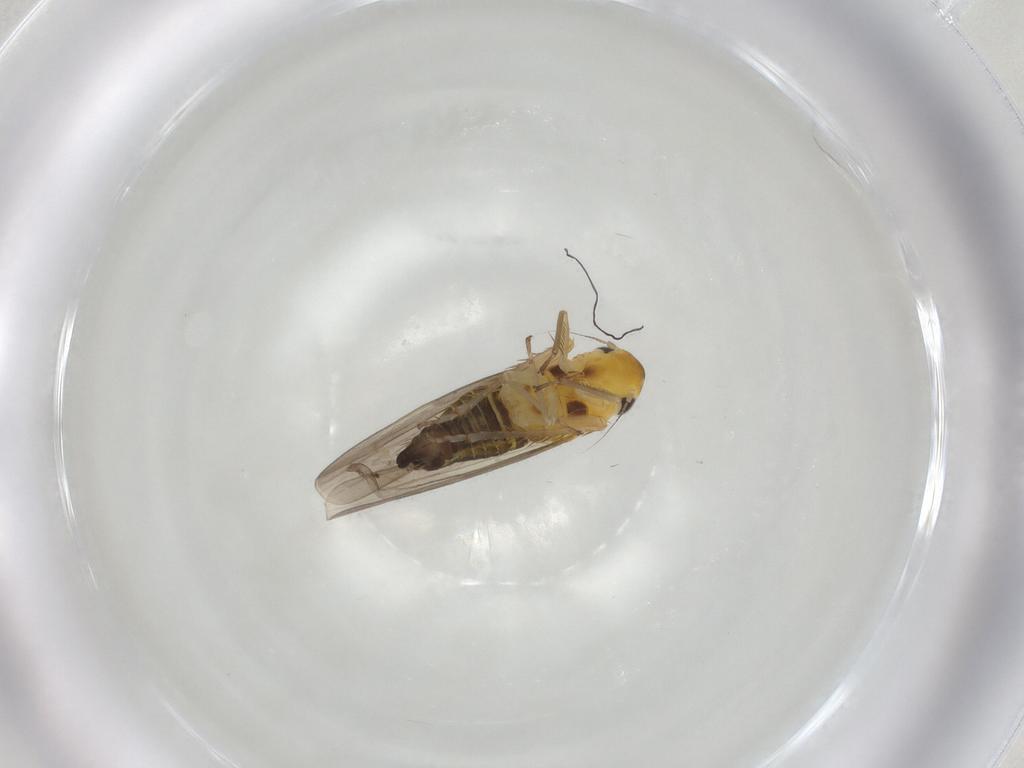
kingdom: Animalia
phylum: Arthropoda
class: Insecta
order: Hemiptera
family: Cicadellidae
